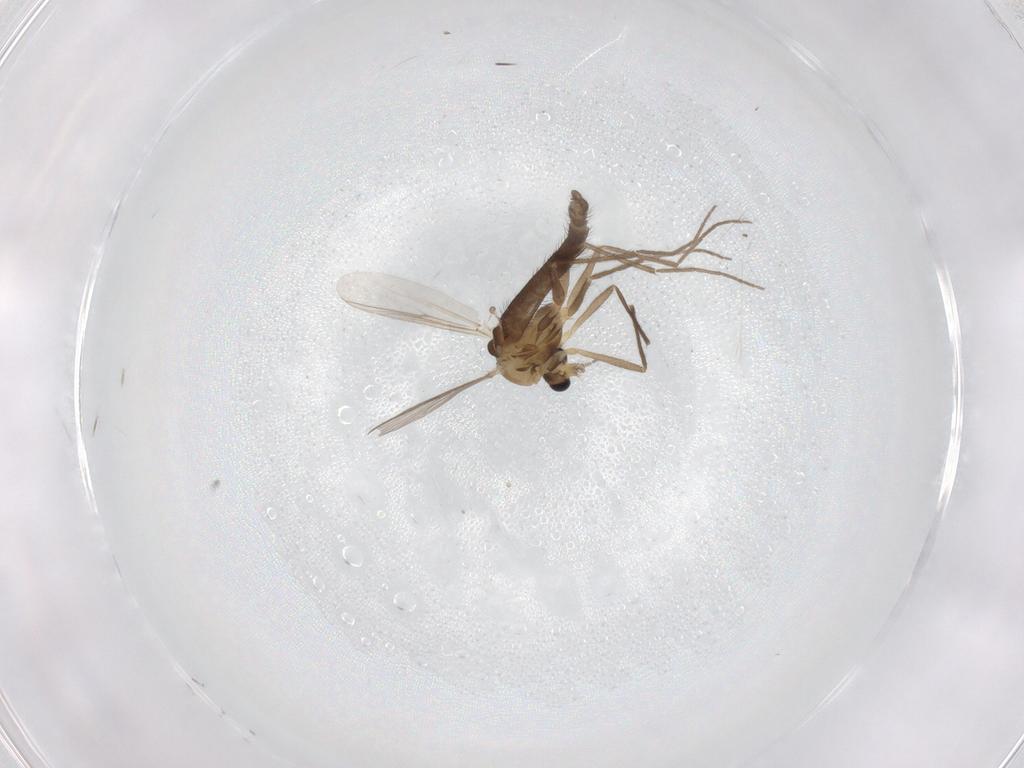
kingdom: Animalia
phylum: Arthropoda
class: Insecta
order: Diptera
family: Chironomidae
